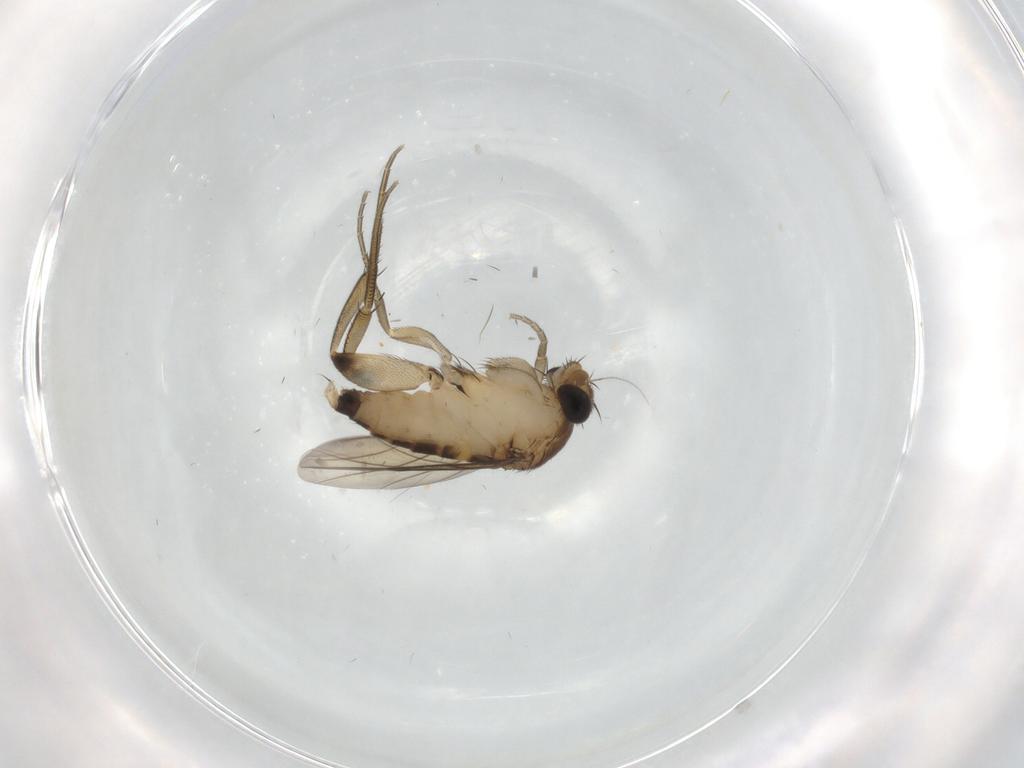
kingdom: Animalia
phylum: Arthropoda
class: Insecta
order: Diptera
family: Phoridae
